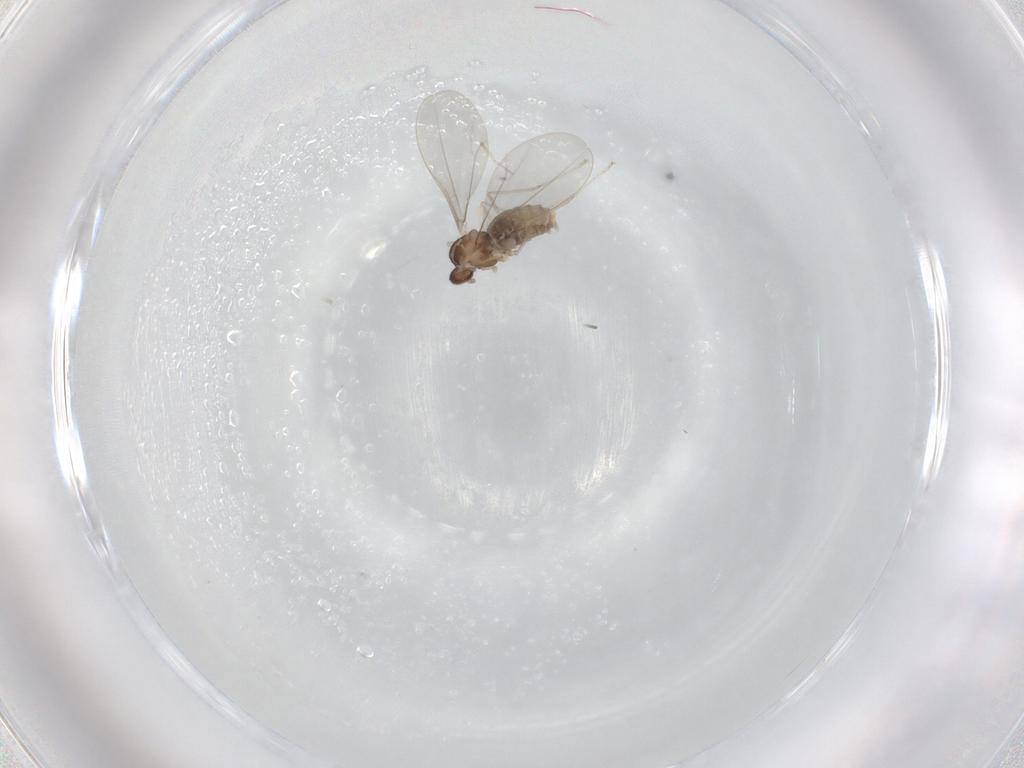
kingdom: Animalia
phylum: Arthropoda
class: Insecta
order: Diptera
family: Cecidomyiidae
